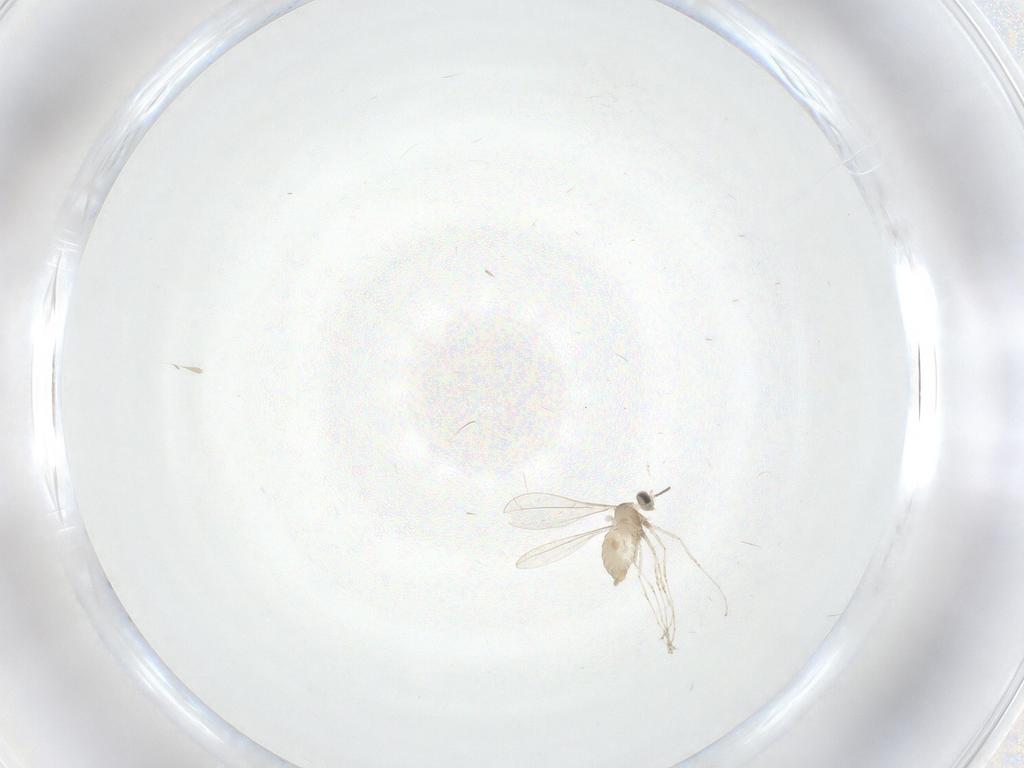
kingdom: Animalia
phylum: Arthropoda
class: Insecta
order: Diptera
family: Cecidomyiidae
